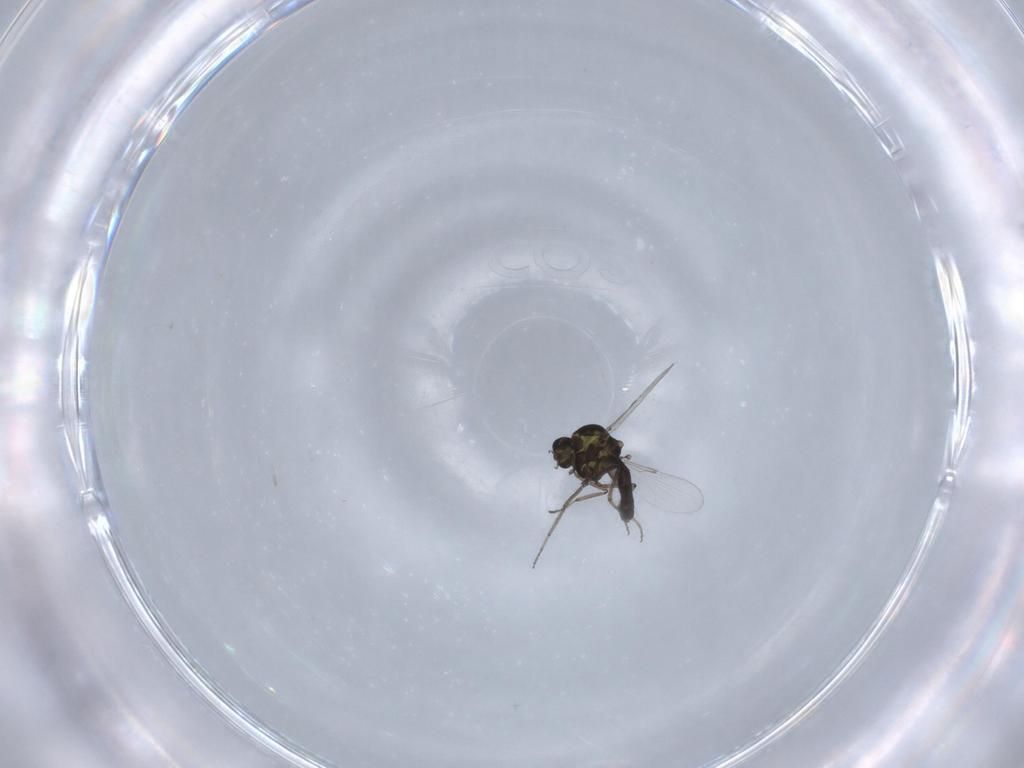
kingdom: Animalia
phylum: Arthropoda
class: Insecta
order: Diptera
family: Ceratopogonidae
